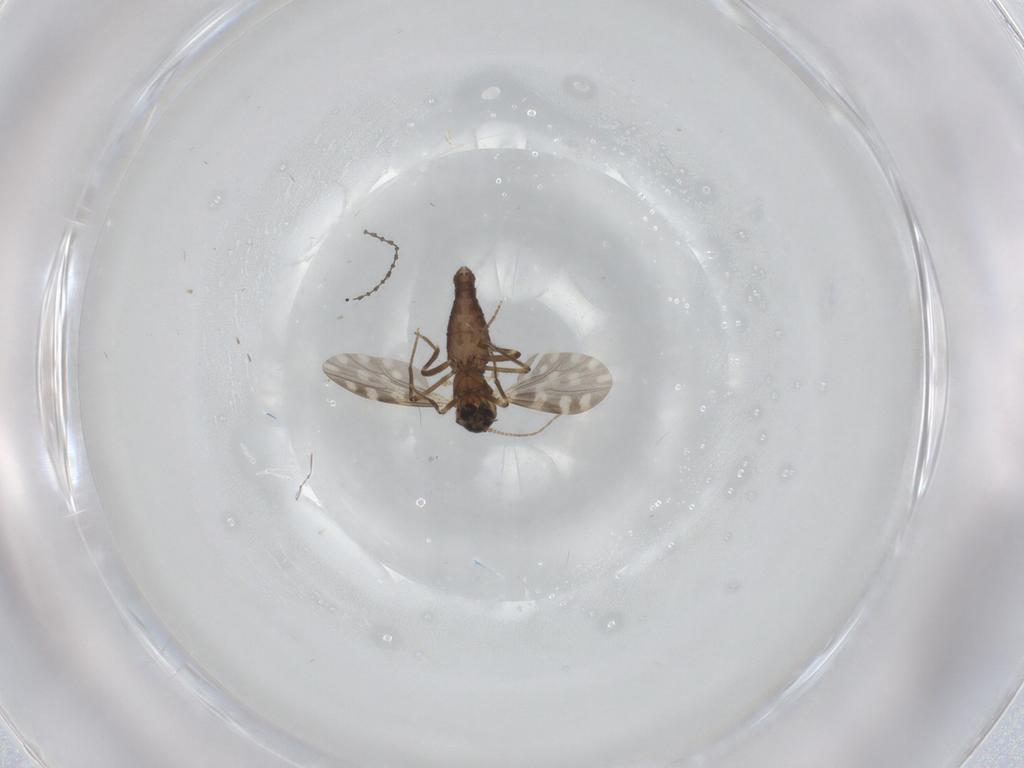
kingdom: Animalia
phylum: Arthropoda
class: Insecta
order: Diptera
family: Ceratopogonidae
